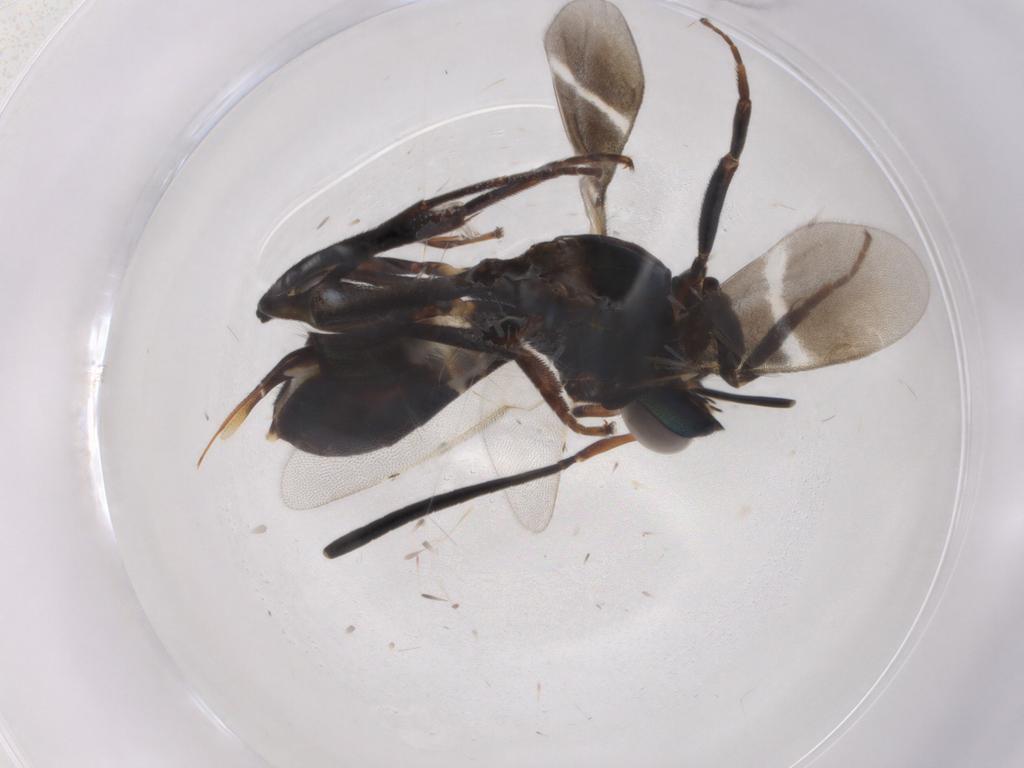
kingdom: Animalia
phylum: Arthropoda
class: Insecta
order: Hymenoptera
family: Eupelmidae
